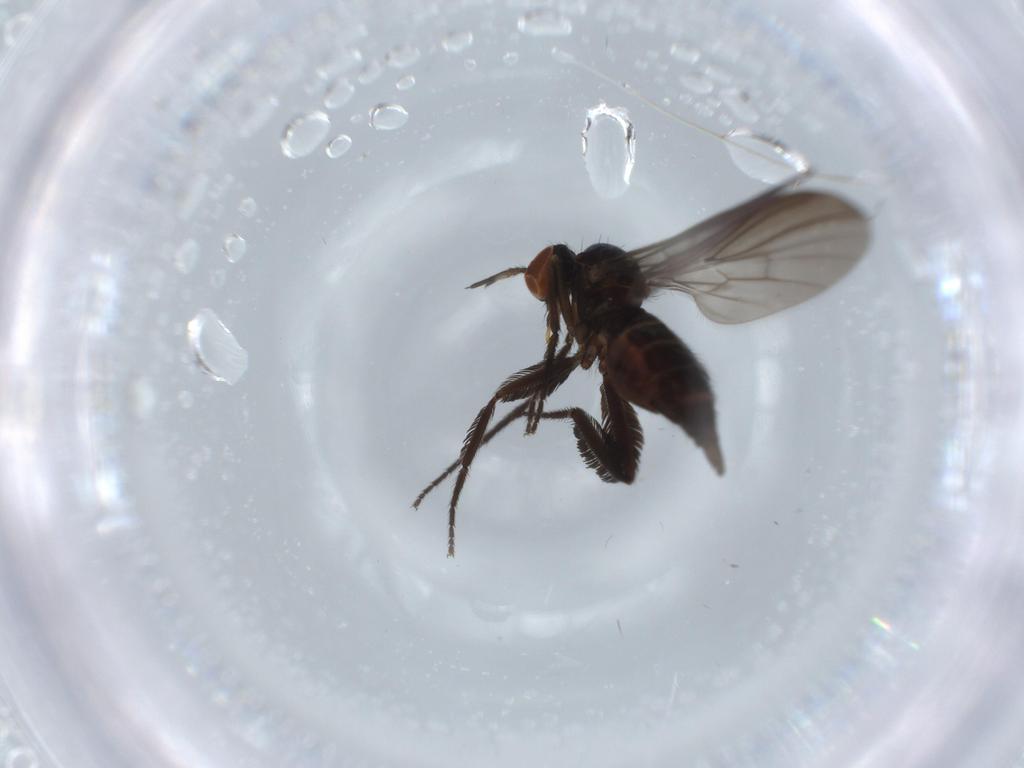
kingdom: Animalia
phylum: Arthropoda
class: Insecta
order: Diptera
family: Empididae
